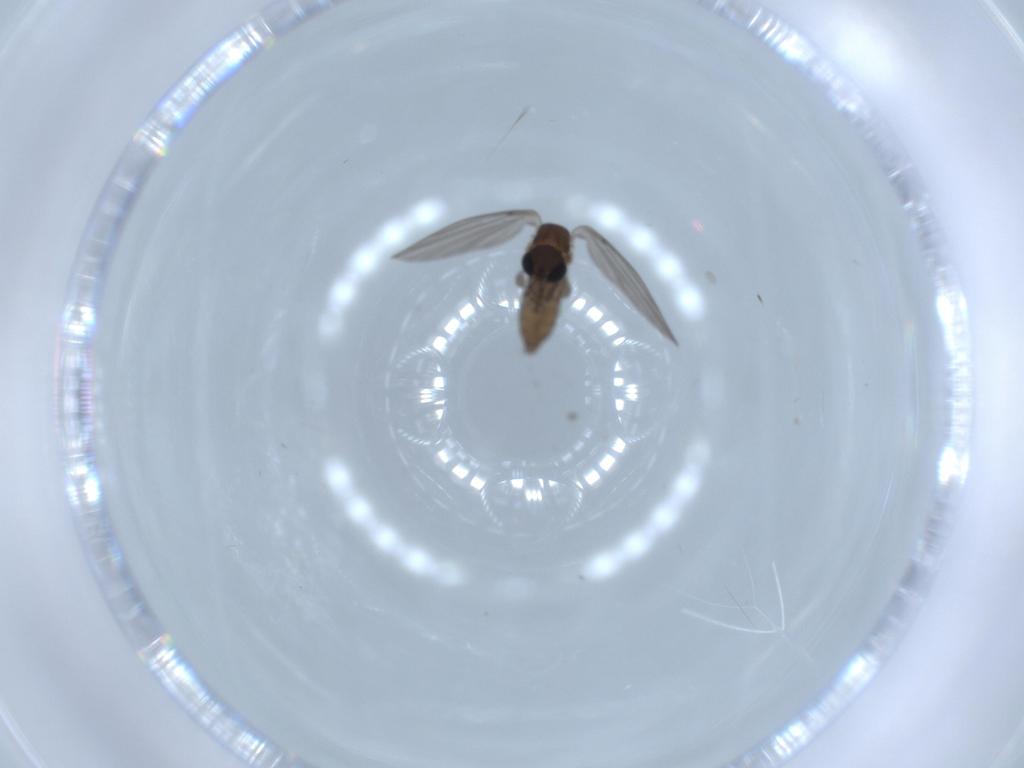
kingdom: Animalia
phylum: Arthropoda
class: Insecta
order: Diptera
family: Psychodidae
